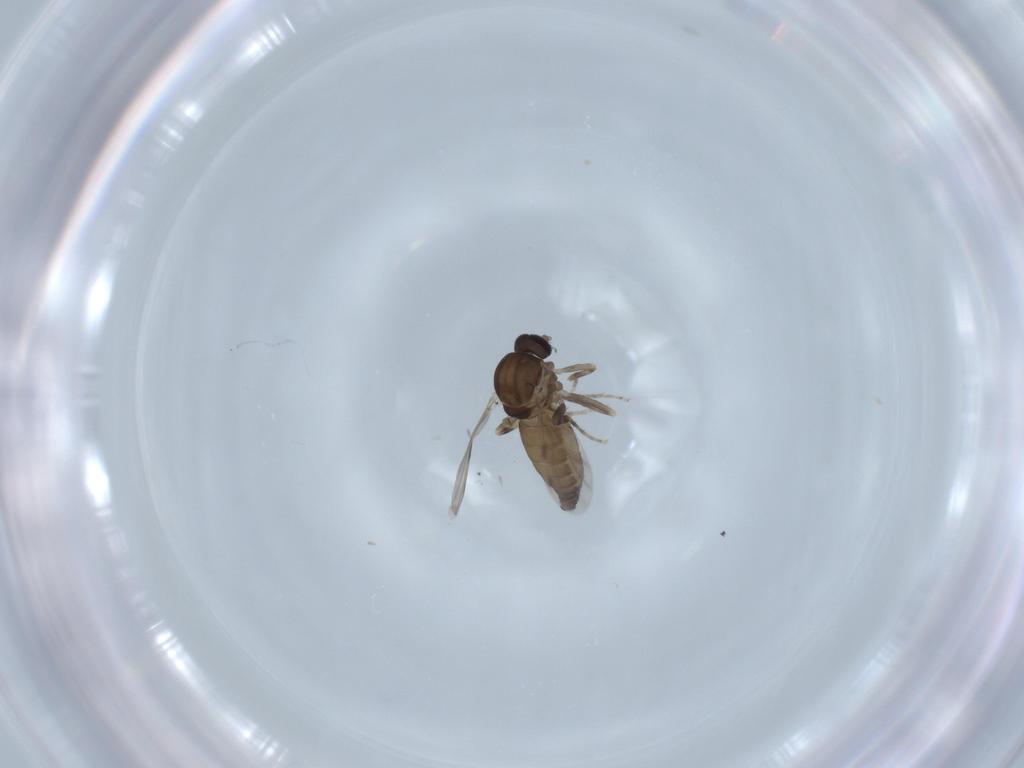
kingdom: Animalia
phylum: Arthropoda
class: Insecta
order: Diptera
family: Ceratopogonidae
